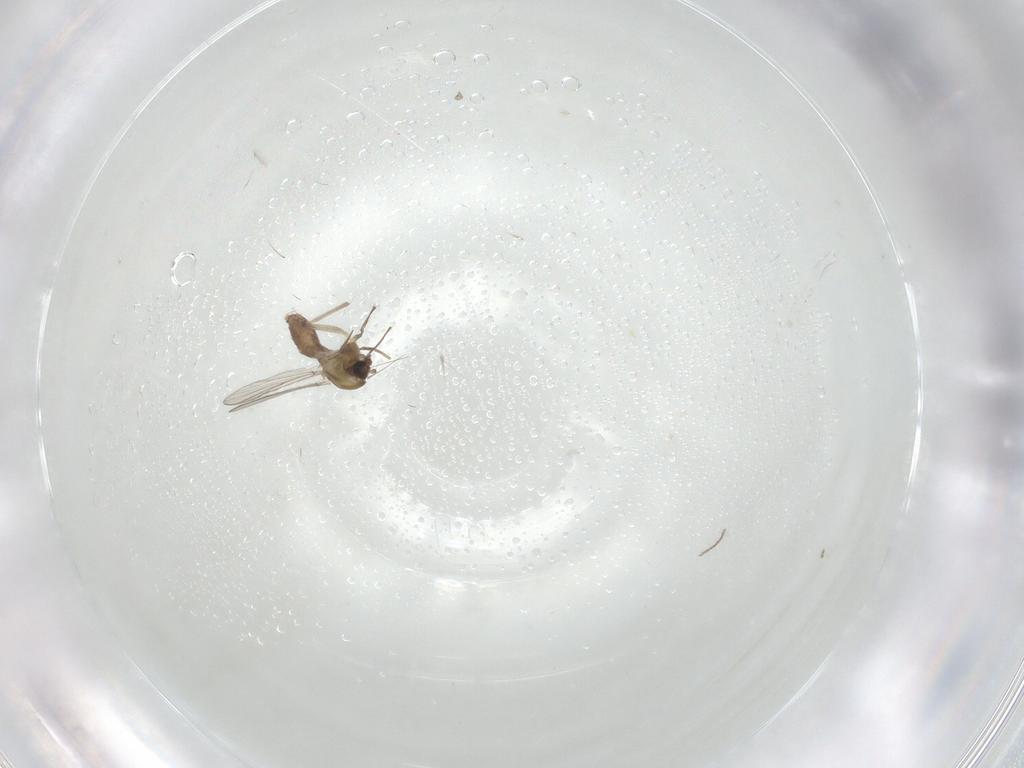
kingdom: Animalia
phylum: Arthropoda
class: Insecta
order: Diptera
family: Chironomidae
